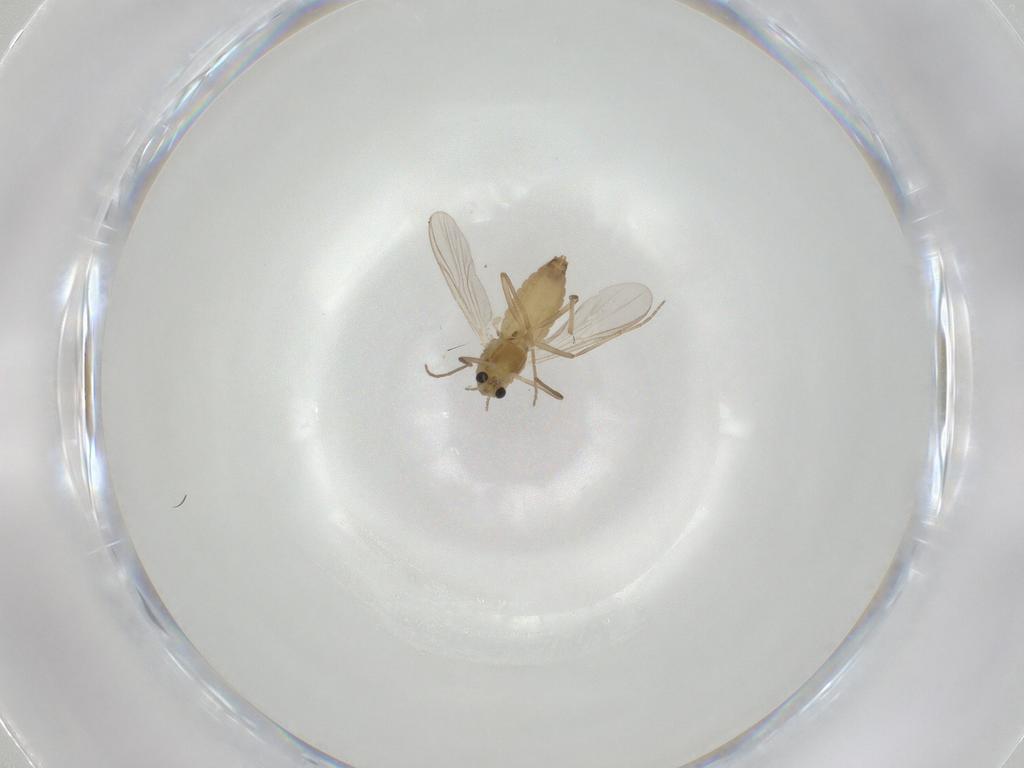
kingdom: Animalia
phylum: Arthropoda
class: Insecta
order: Diptera
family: Chironomidae
